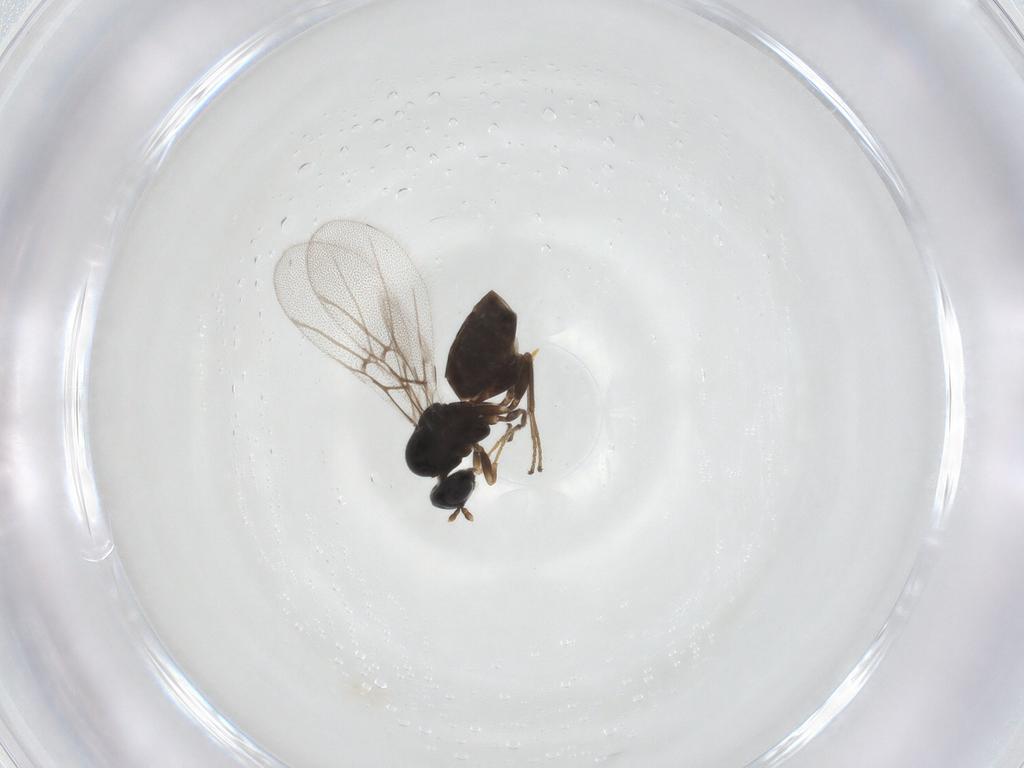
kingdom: Animalia
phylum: Arthropoda
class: Insecta
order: Hymenoptera
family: Cynipidae
